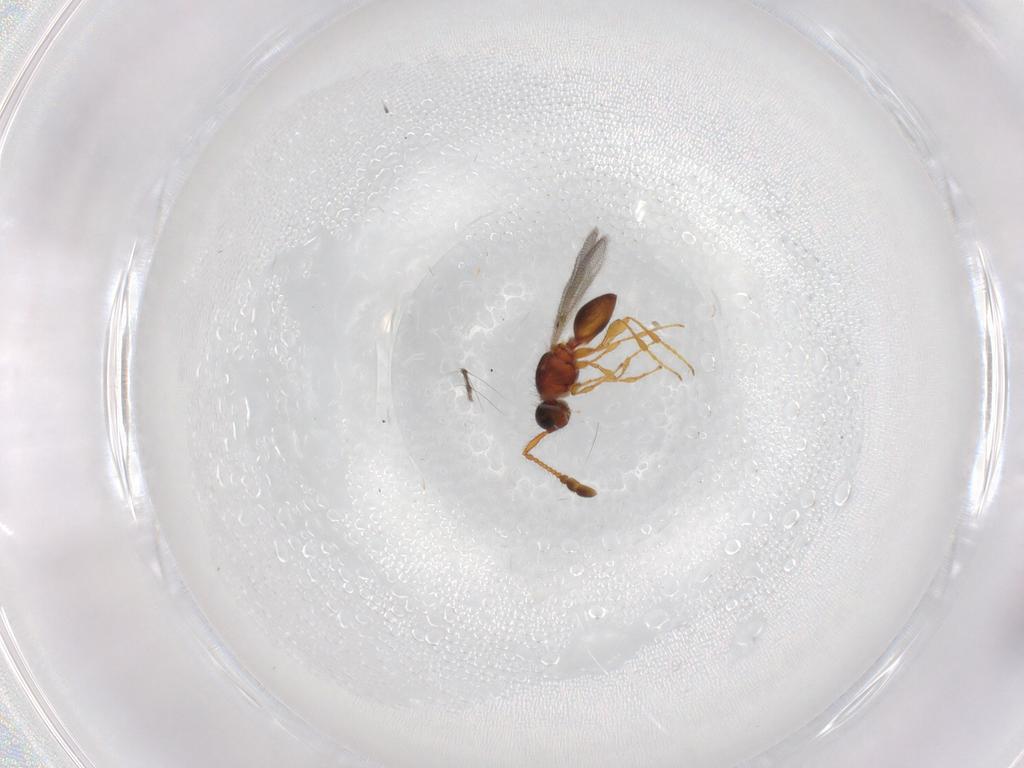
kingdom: Animalia
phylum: Arthropoda
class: Insecta
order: Hymenoptera
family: Diapriidae
